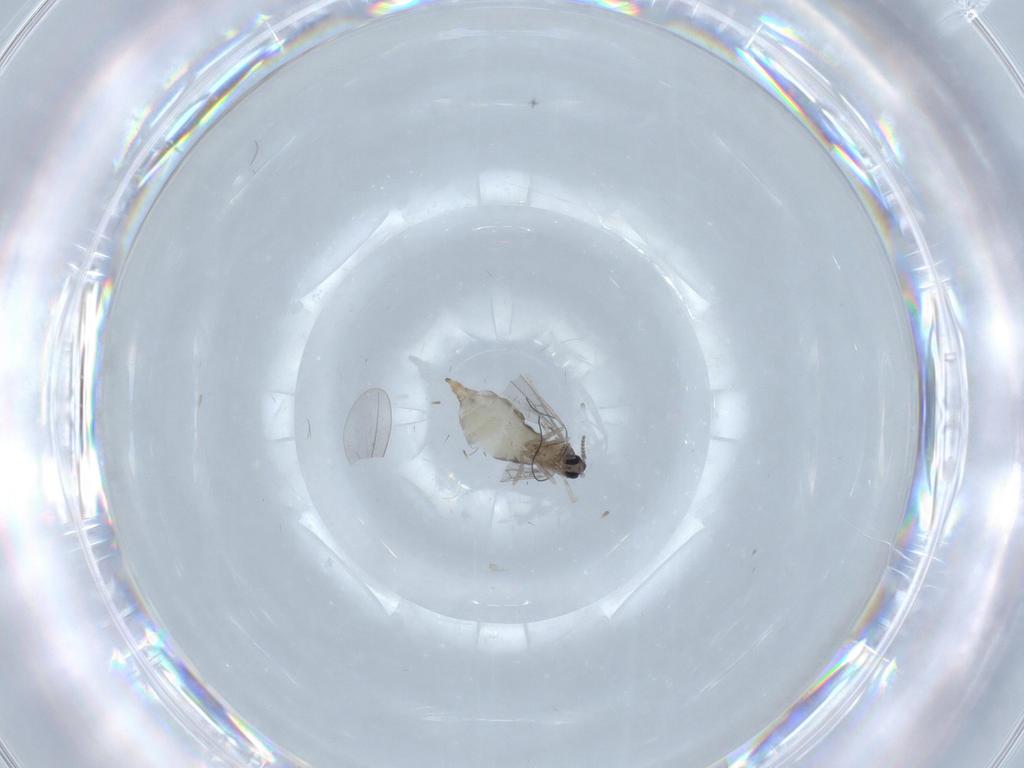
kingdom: Animalia
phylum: Arthropoda
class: Insecta
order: Diptera
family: Cecidomyiidae
